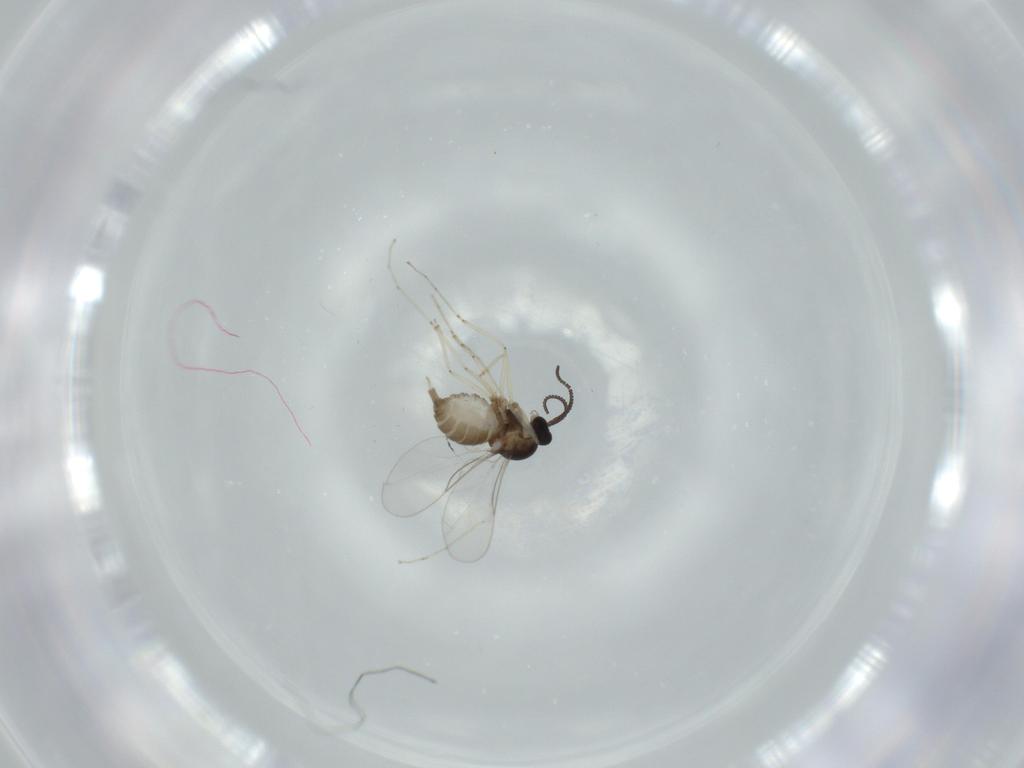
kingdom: Animalia
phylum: Arthropoda
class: Insecta
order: Diptera
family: Cecidomyiidae
